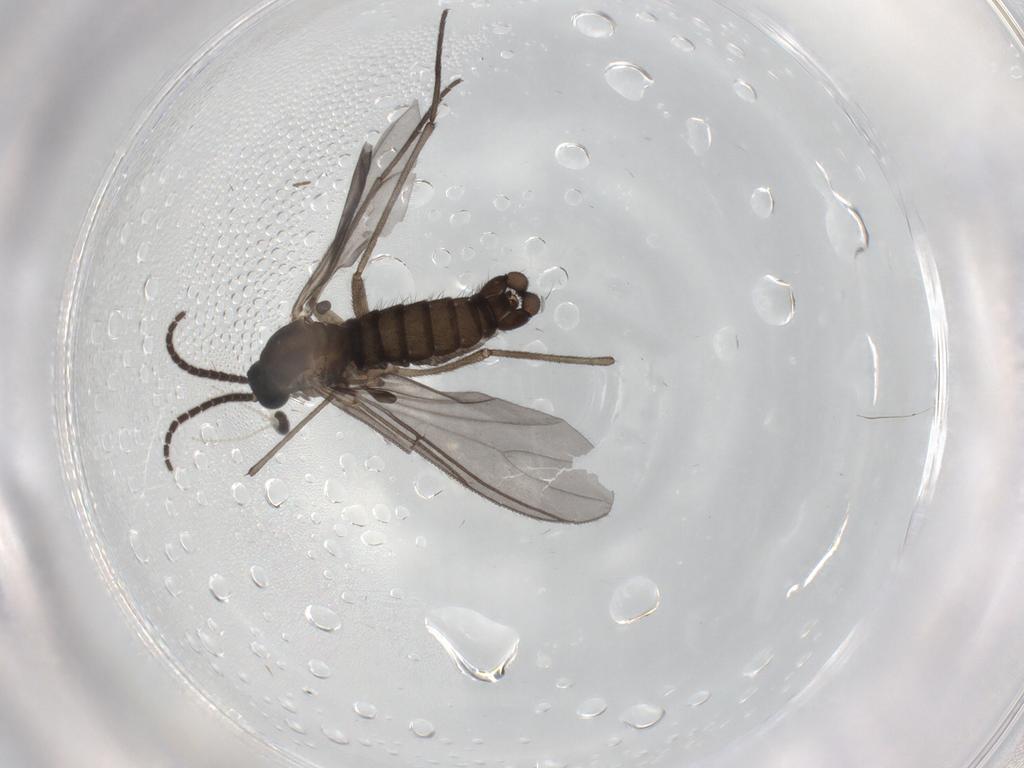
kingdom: Animalia
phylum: Arthropoda
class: Insecta
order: Diptera
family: Sciaridae
